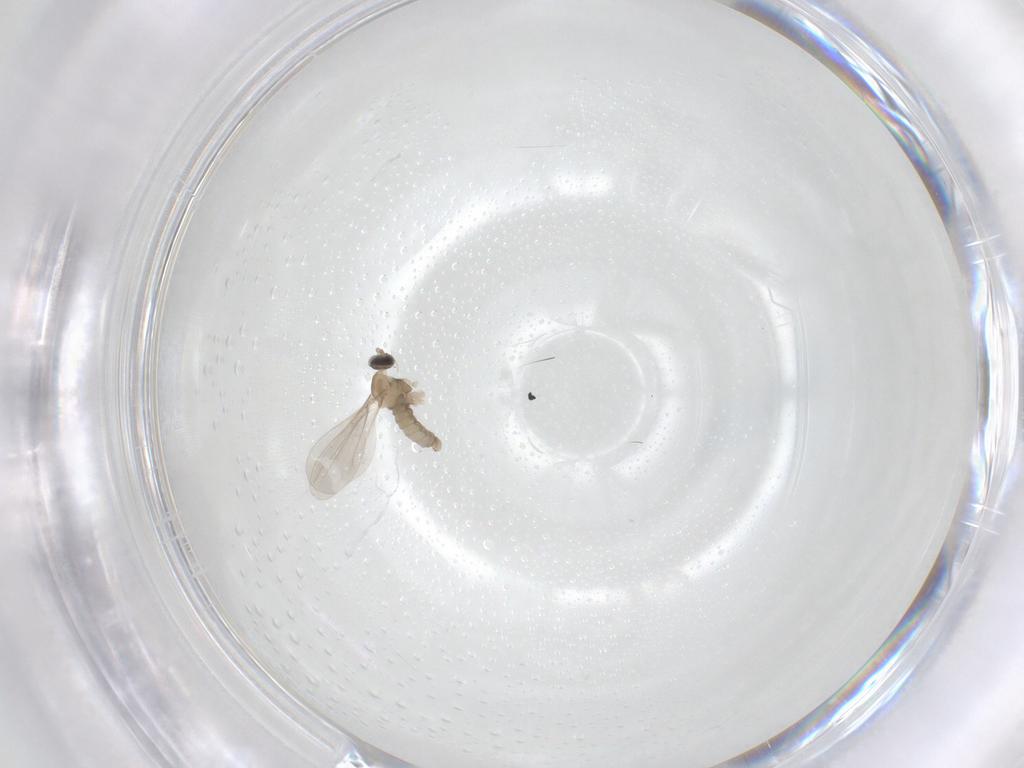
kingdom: Animalia
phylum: Arthropoda
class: Insecta
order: Diptera
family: Cecidomyiidae
